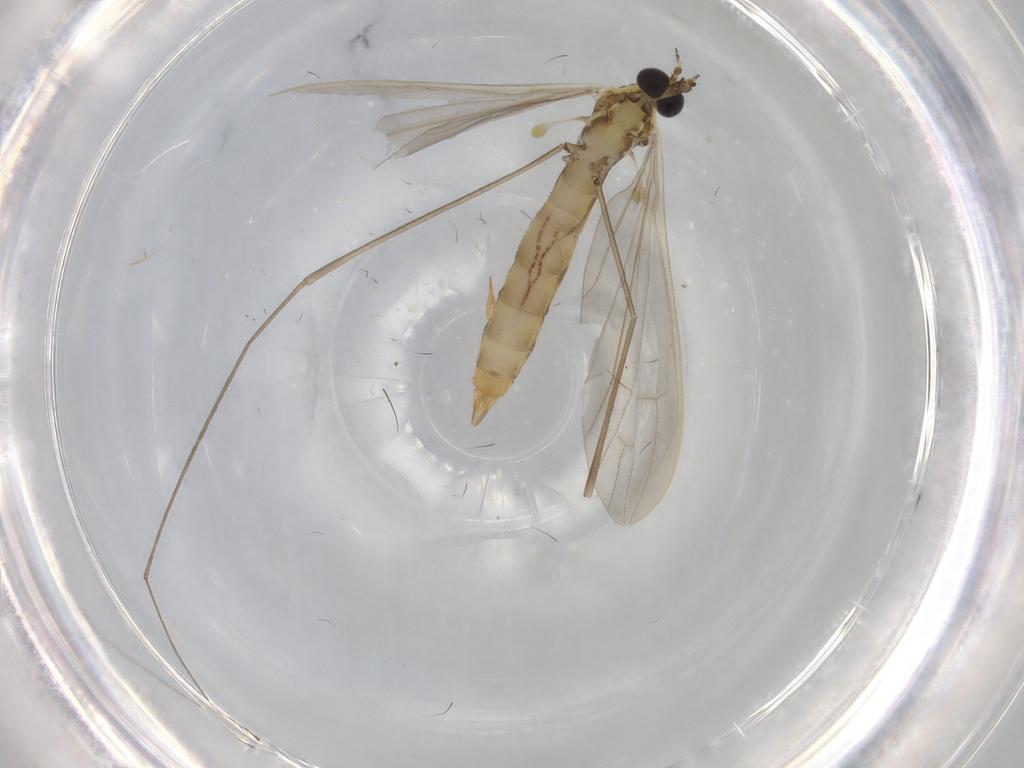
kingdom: Animalia
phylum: Arthropoda
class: Insecta
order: Diptera
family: Limoniidae
